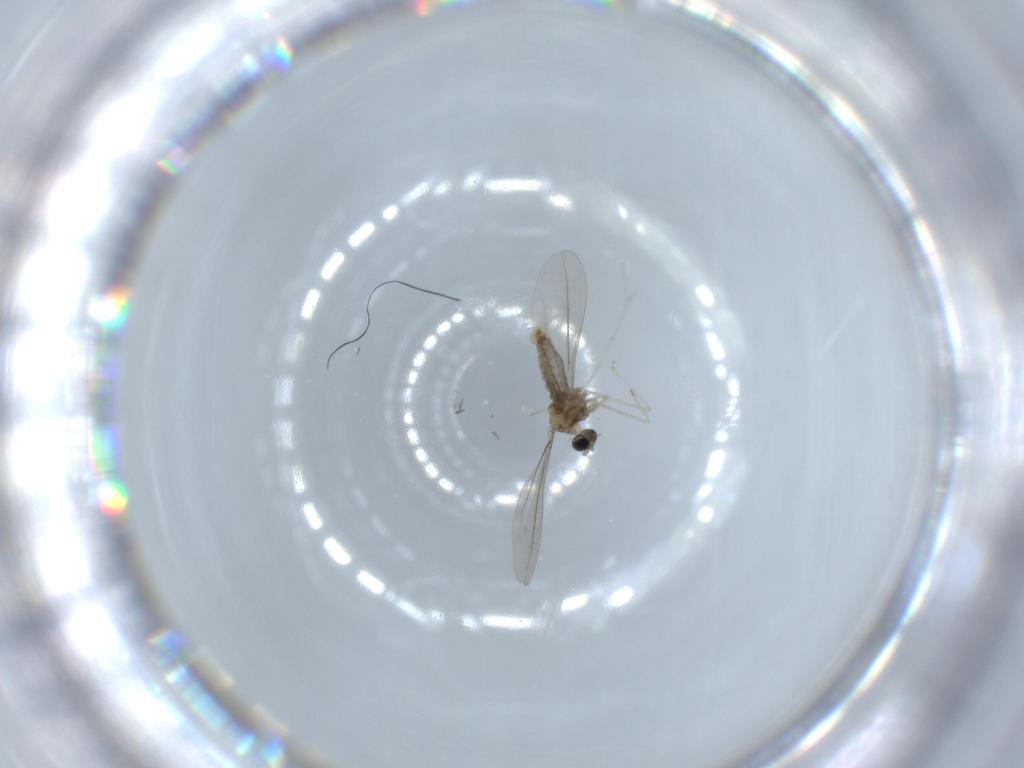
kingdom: Animalia
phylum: Arthropoda
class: Insecta
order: Diptera
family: Cecidomyiidae
